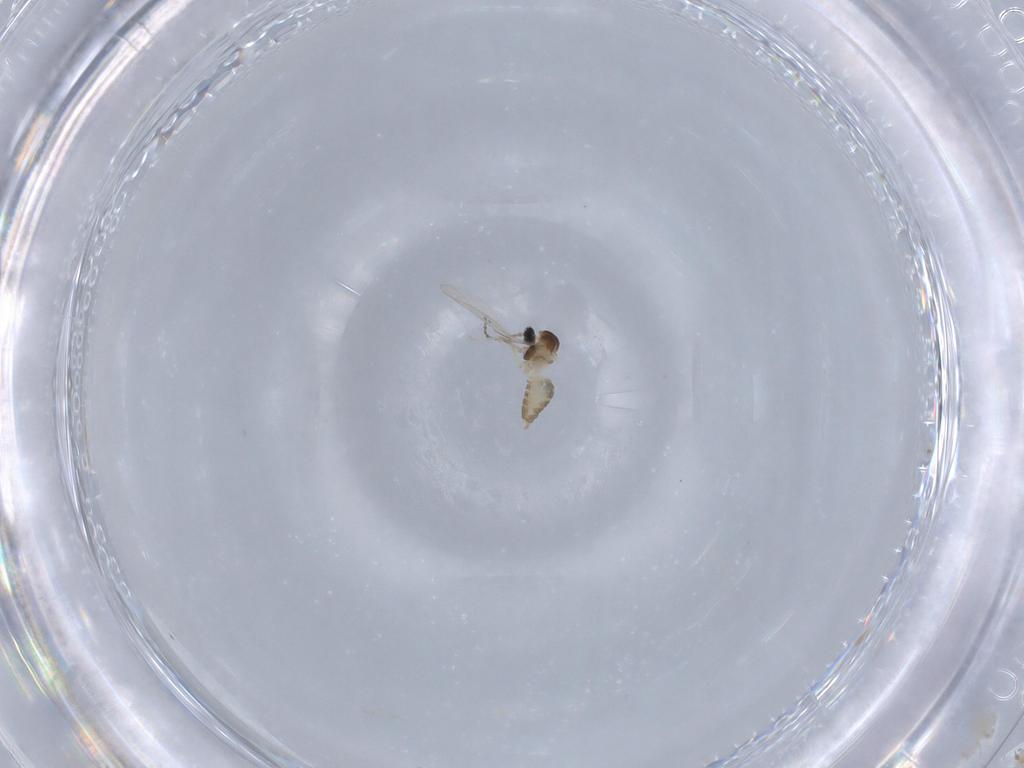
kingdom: Animalia
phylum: Arthropoda
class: Insecta
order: Diptera
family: Cecidomyiidae
